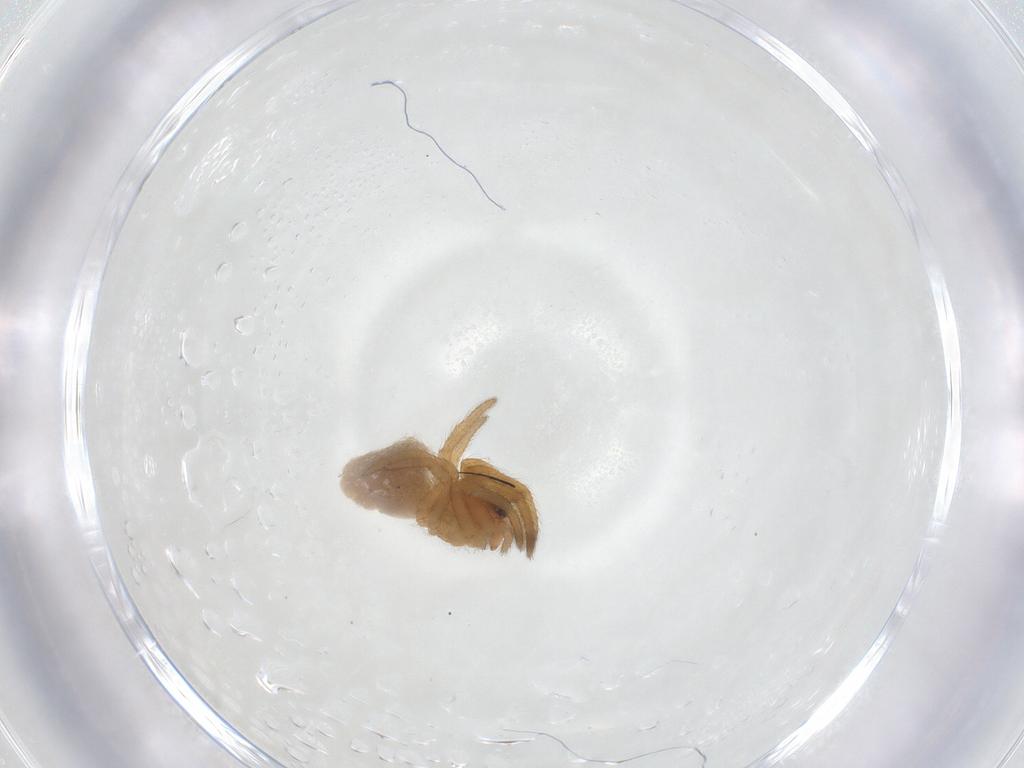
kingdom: Animalia
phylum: Arthropoda
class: Arachnida
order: Araneae
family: Tetragnathidae
